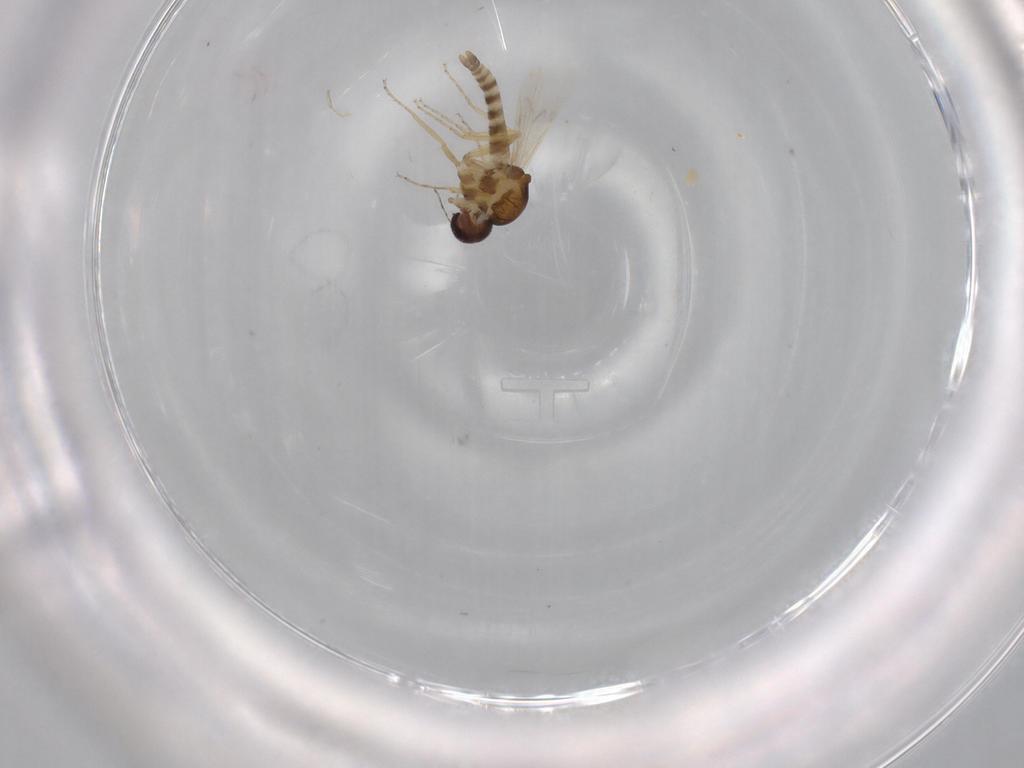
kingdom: Animalia
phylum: Arthropoda
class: Insecta
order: Diptera
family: Ceratopogonidae
